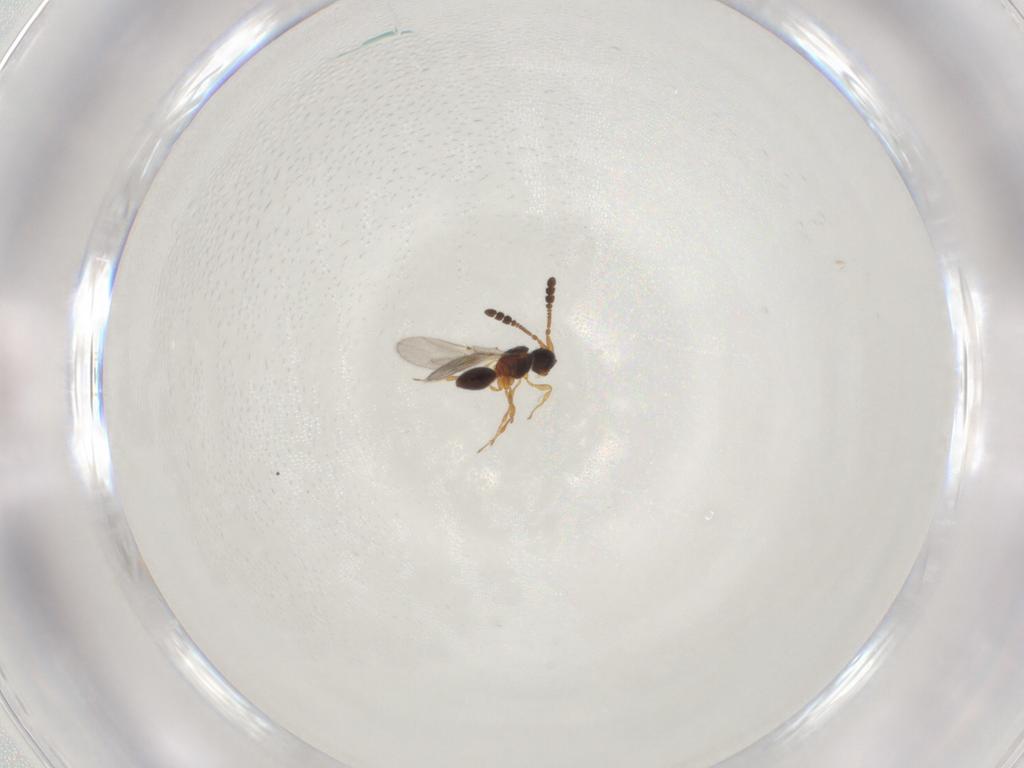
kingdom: Animalia
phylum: Arthropoda
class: Insecta
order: Hymenoptera
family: Diapriidae
